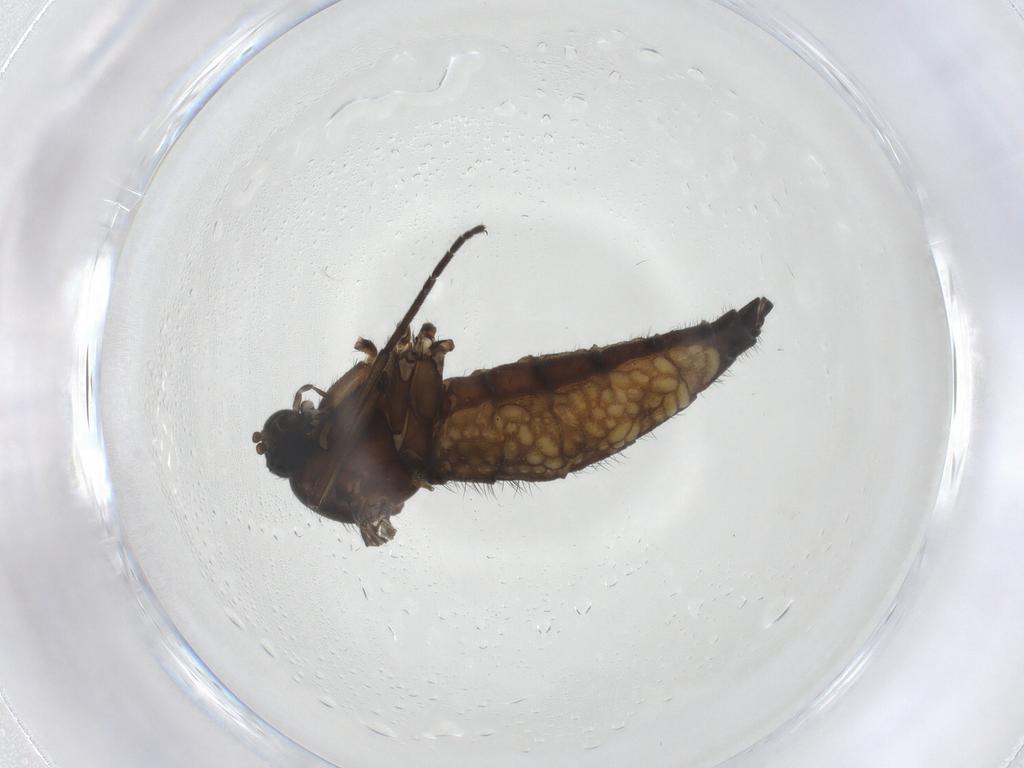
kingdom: Animalia
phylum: Arthropoda
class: Insecta
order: Diptera
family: Sciaridae
